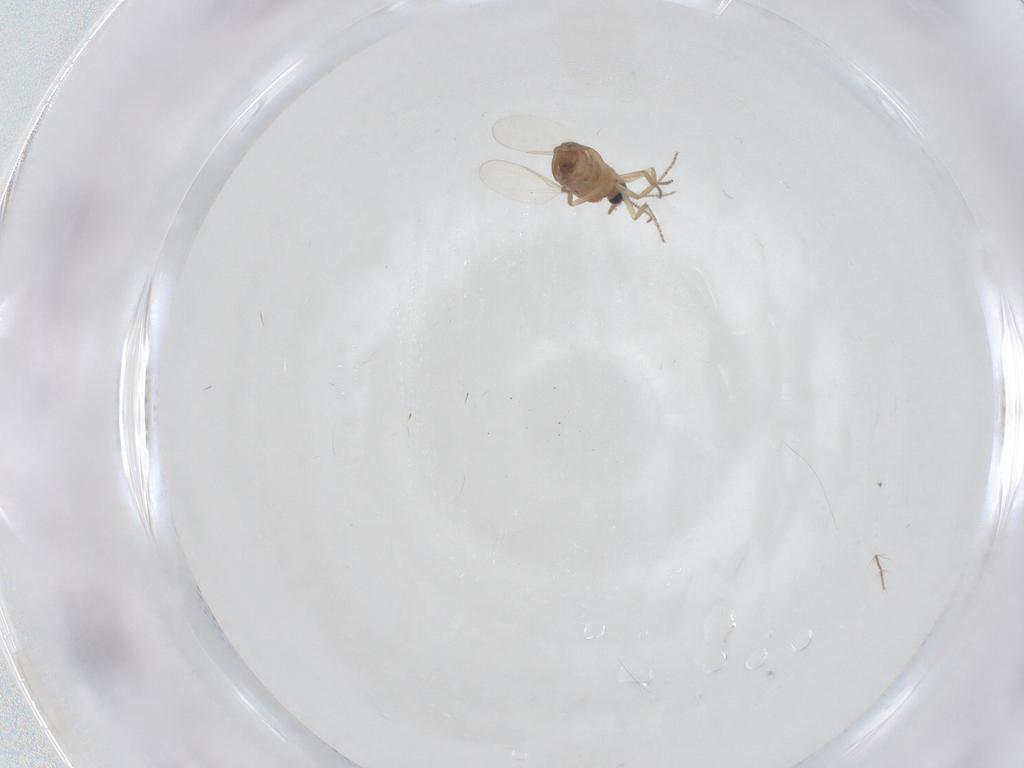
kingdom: Animalia
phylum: Arthropoda
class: Insecta
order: Diptera
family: Ceratopogonidae
